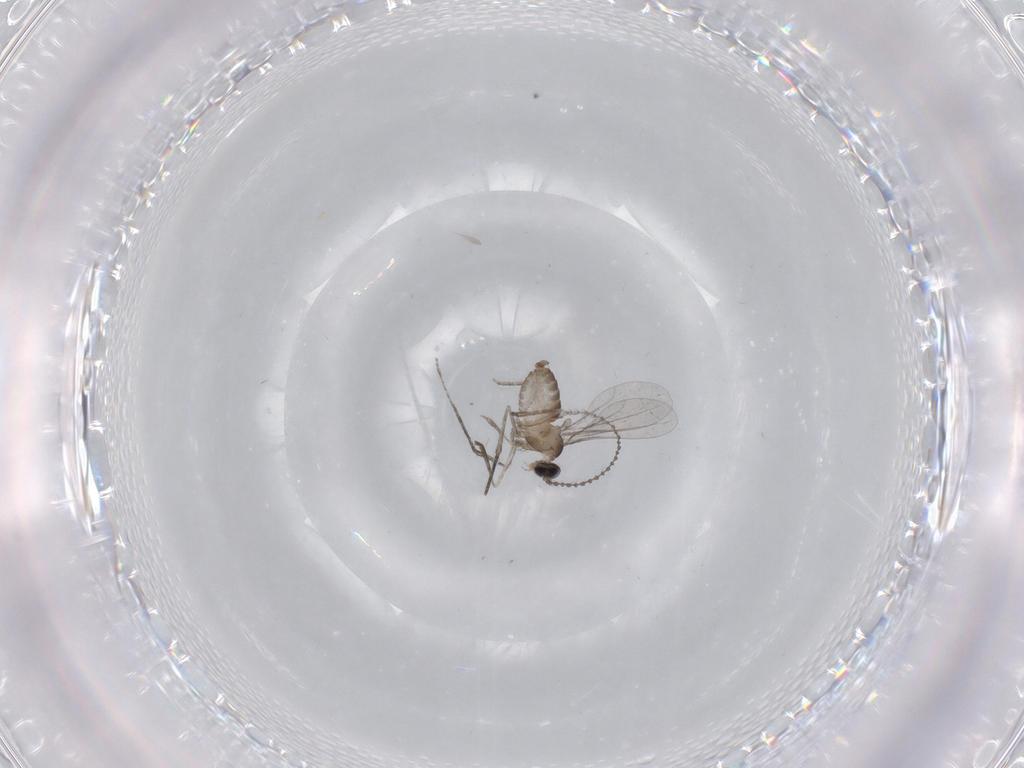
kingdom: Animalia
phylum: Arthropoda
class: Insecta
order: Diptera
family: Cecidomyiidae
